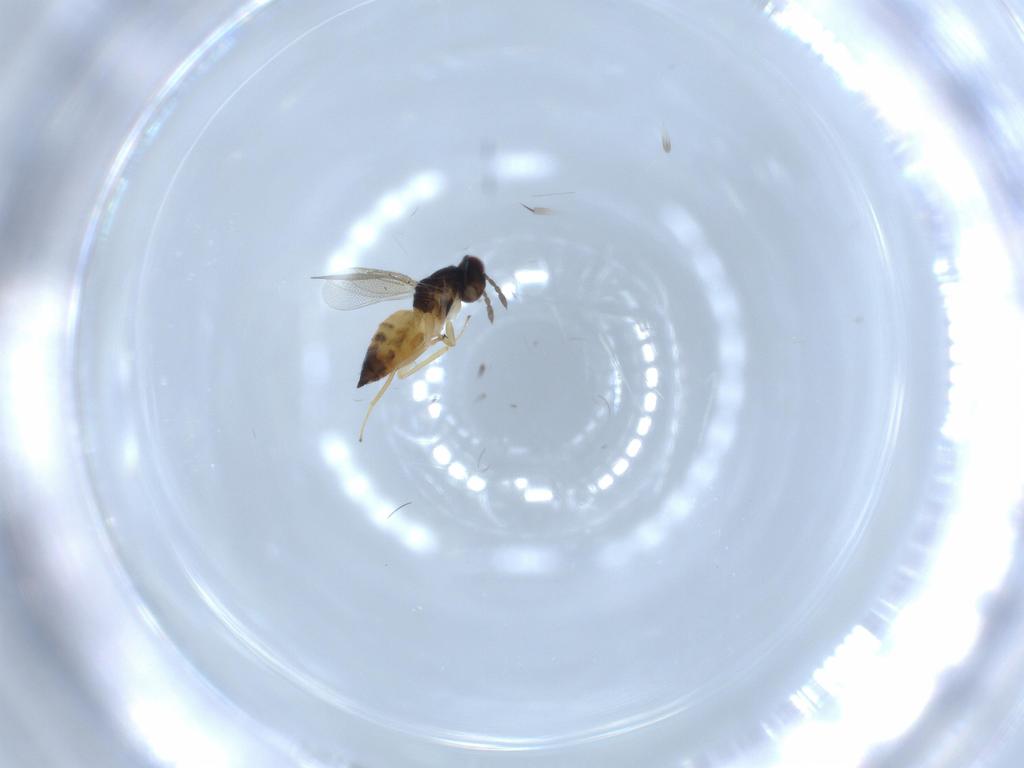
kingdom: Animalia
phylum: Arthropoda
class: Insecta
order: Hymenoptera
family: Eulophidae
